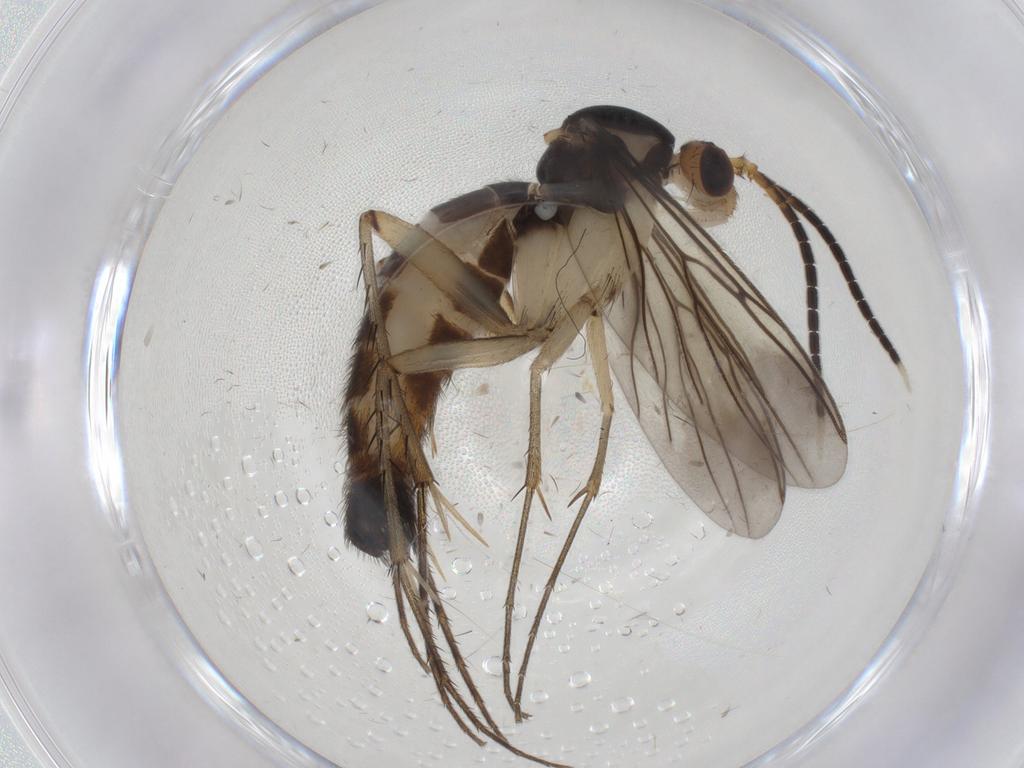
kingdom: Animalia
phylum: Arthropoda
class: Insecta
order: Diptera
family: Chironomidae
